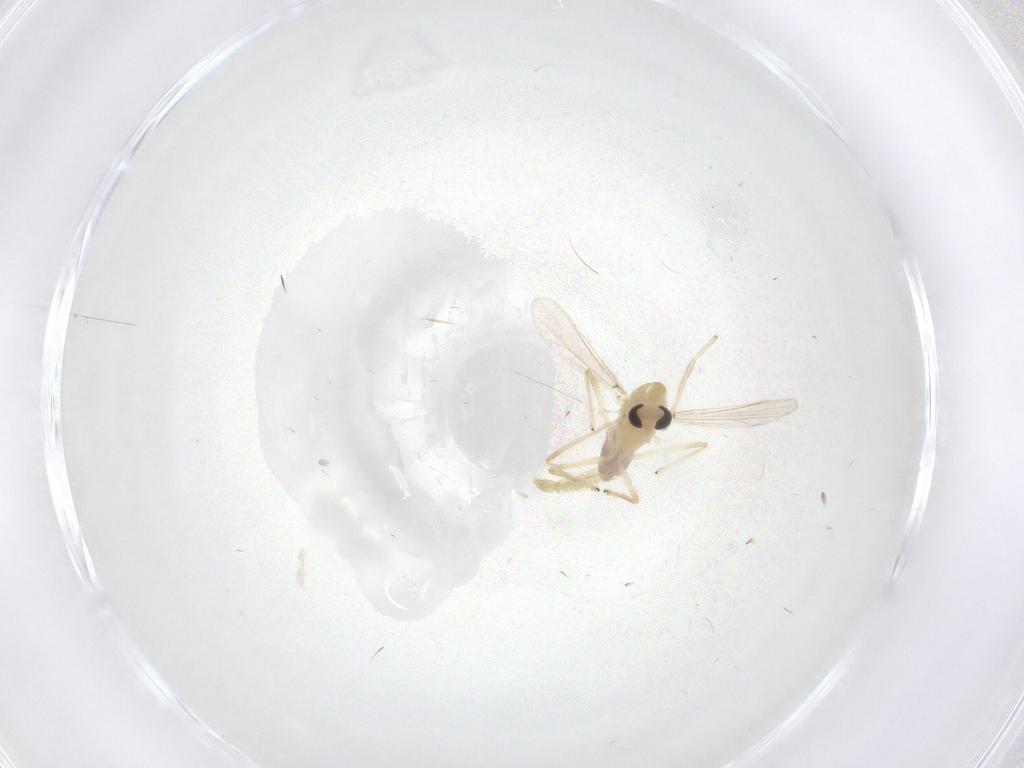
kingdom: Animalia
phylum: Arthropoda
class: Insecta
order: Diptera
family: Chironomidae
